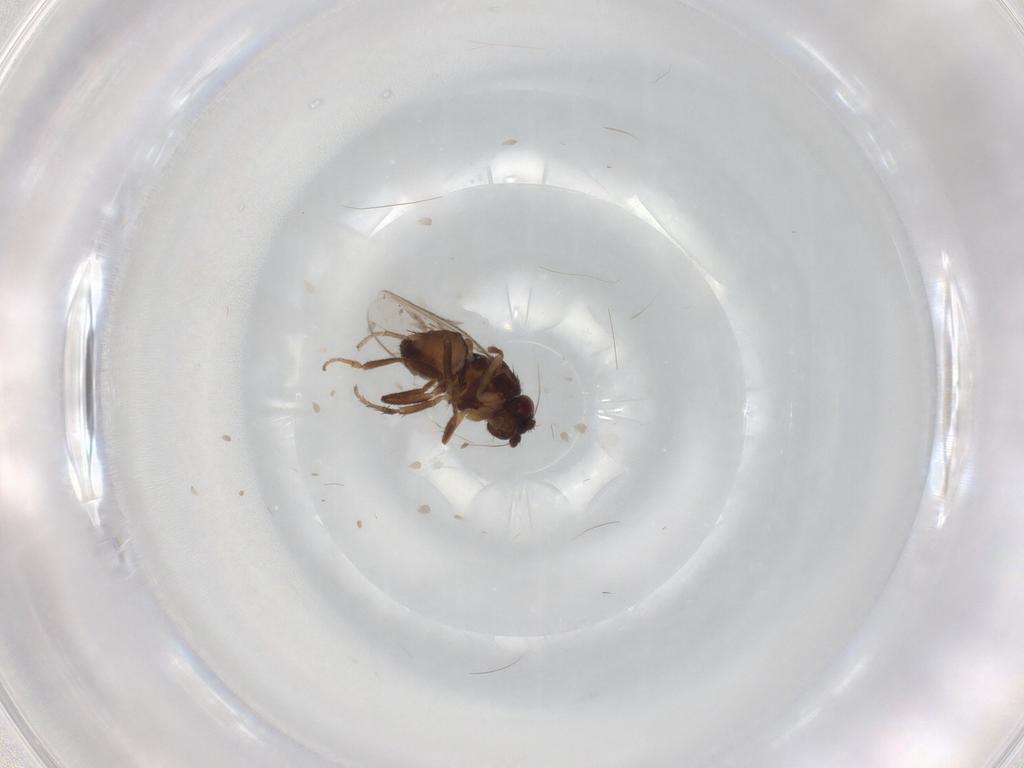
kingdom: Animalia
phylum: Arthropoda
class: Insecta
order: Diptera
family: Sphaeroceridae
